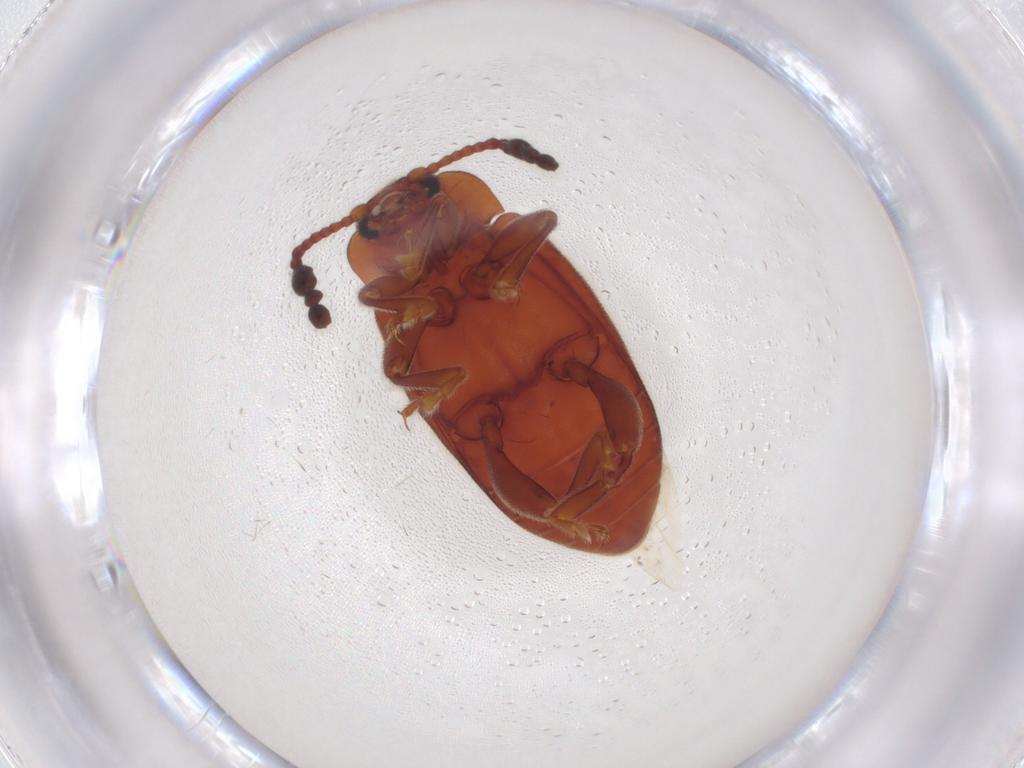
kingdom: Animalia
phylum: Arthropoda
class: Insecta
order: Coleoptera
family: Endomychidae
